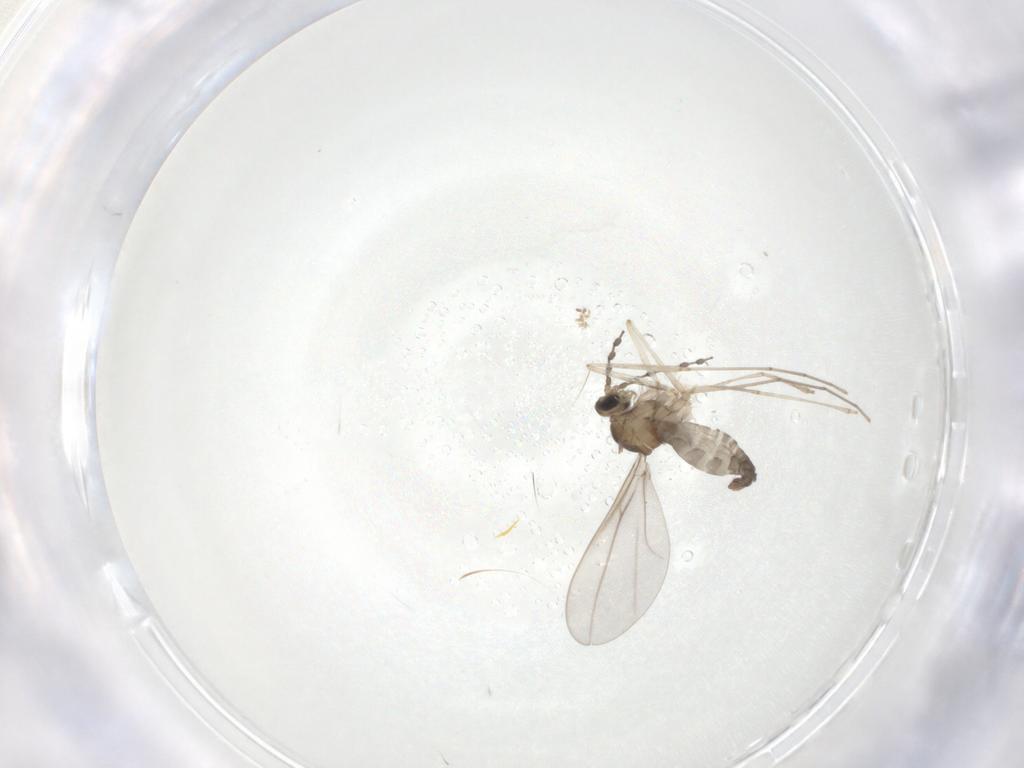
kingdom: Animalia
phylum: Arthropoda
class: Insecta
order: Diptera
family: Cecidomyiidae
